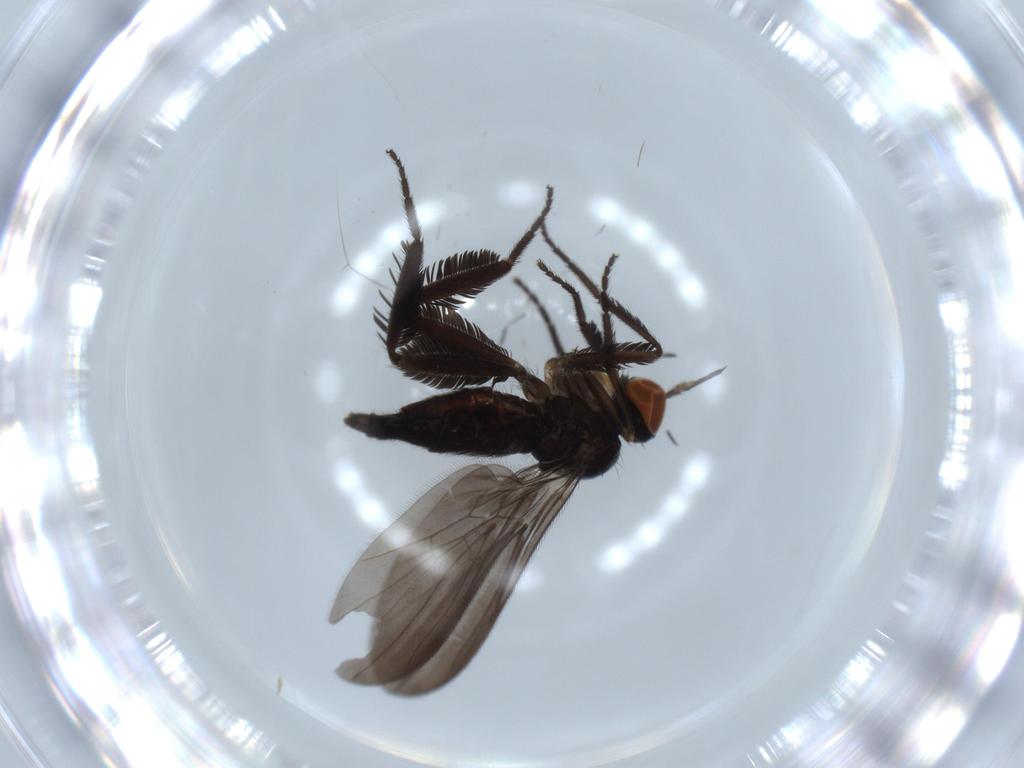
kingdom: Animalia
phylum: Arthropoda
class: Insecta
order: Diptera
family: Empididae
